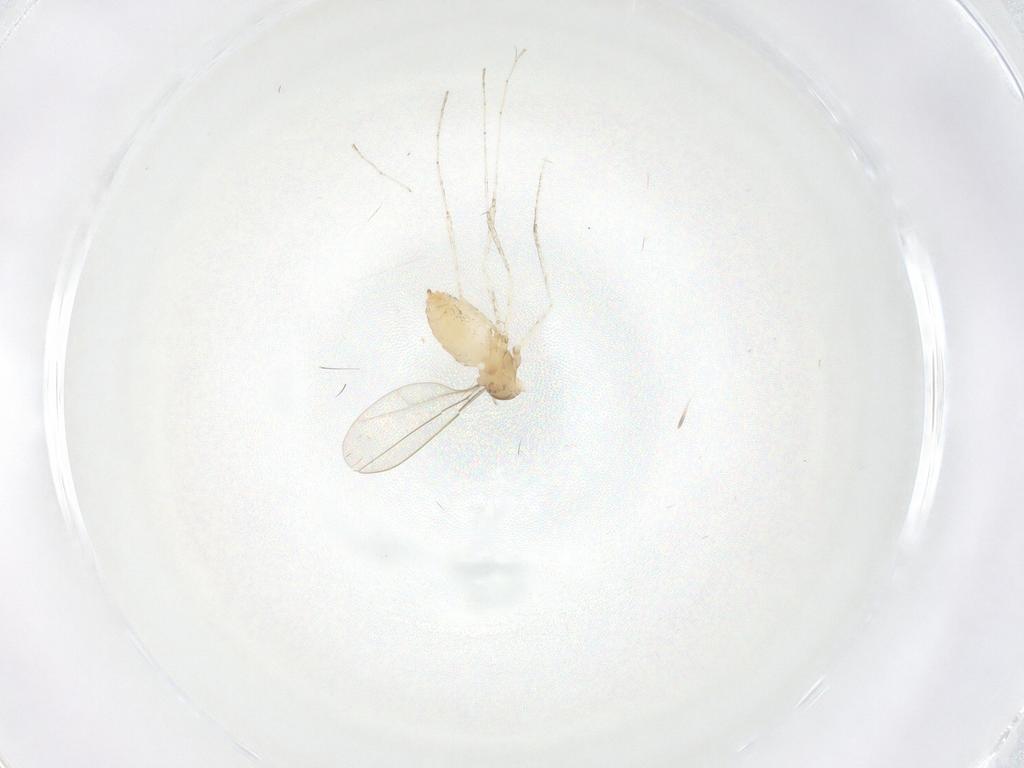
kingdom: Animalia
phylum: Arthropoda
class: Insecta
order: Diptera
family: Cecidomyiidae
